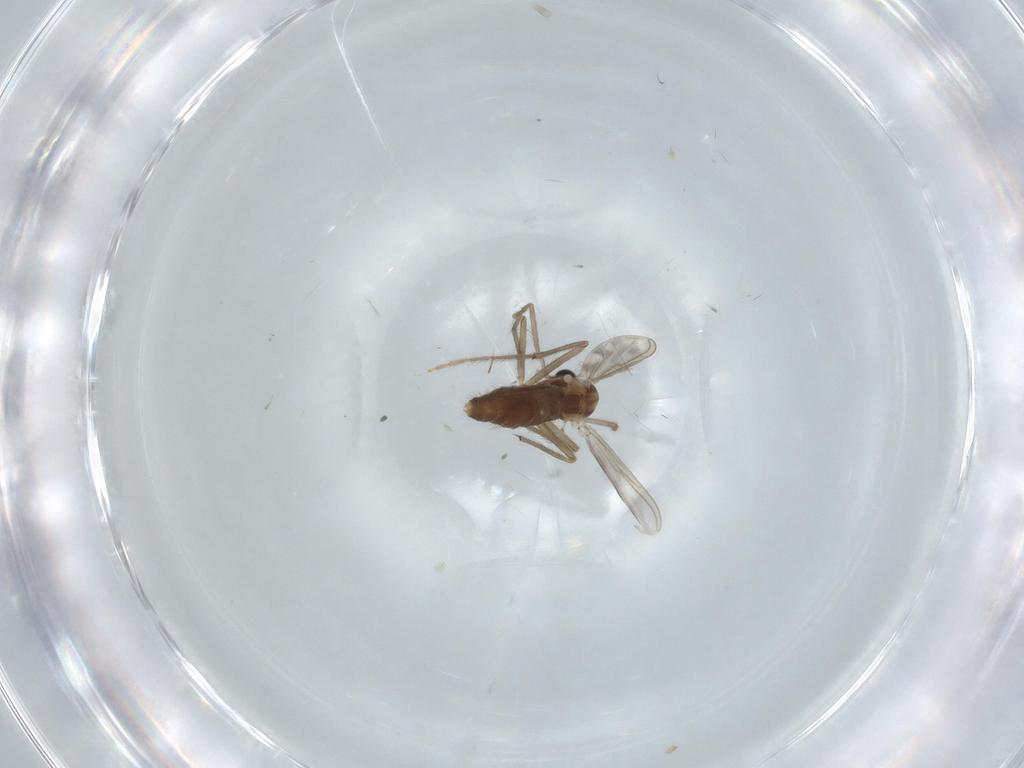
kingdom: Animalia
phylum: Arthropoda
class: Insecta
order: Diptera
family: Chironomidae
